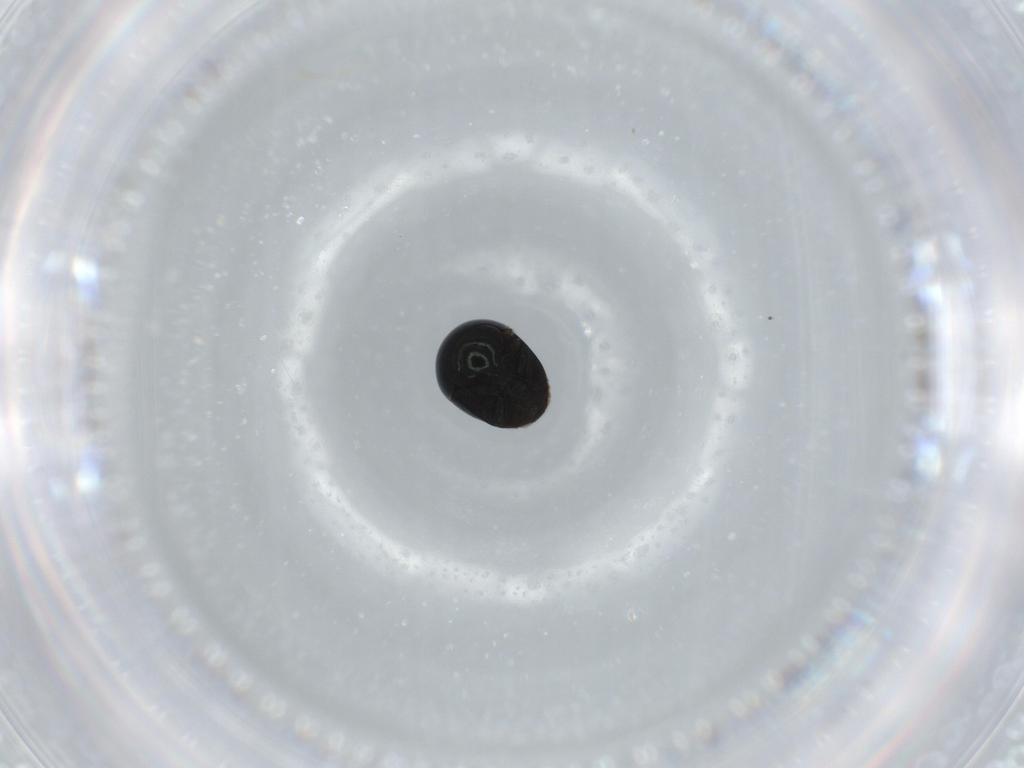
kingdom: Animalia
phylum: Arthropoda
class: Insecta
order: Coleoptera
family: Cybocephalidae
